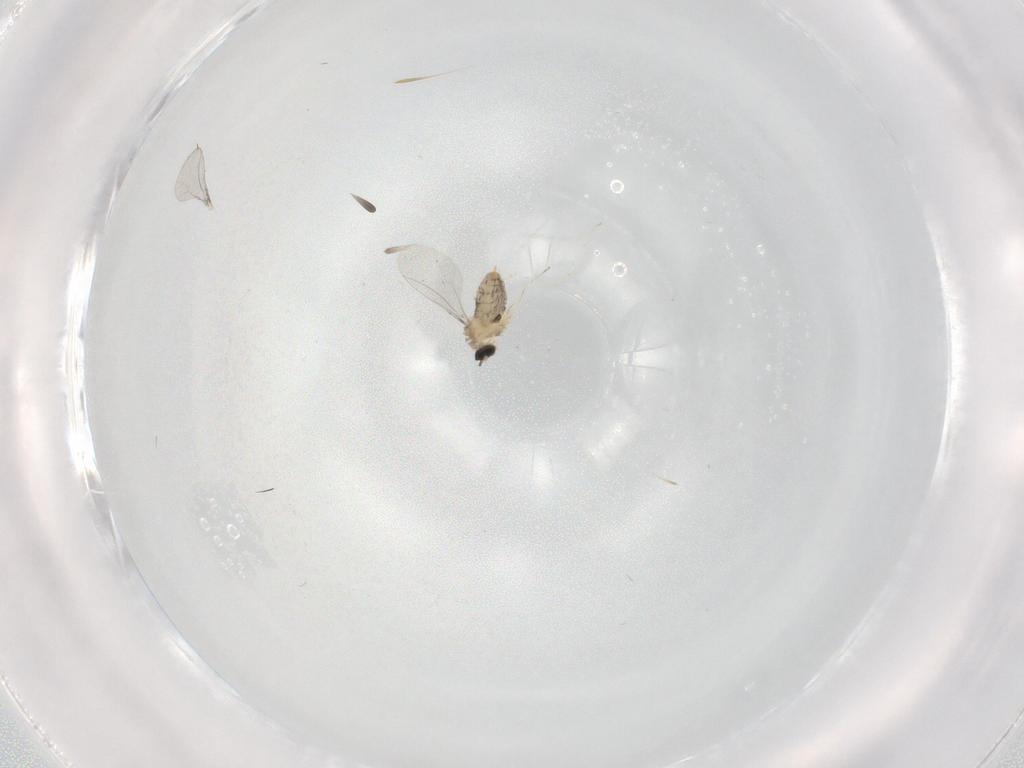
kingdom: Animalia
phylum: Arthropoda
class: Insecta
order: Diptera
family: Cecidomyiidae
